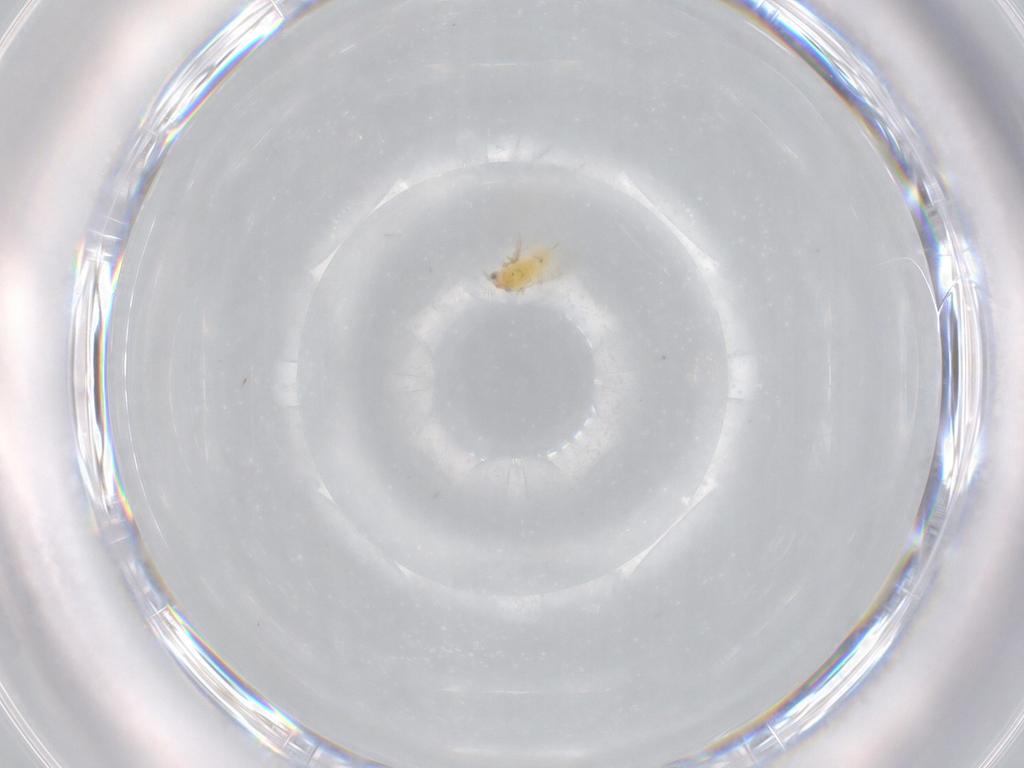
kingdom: Animalia
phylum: Arthropoda
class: Insecta
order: Hymenoptera
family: Aphelinidae
